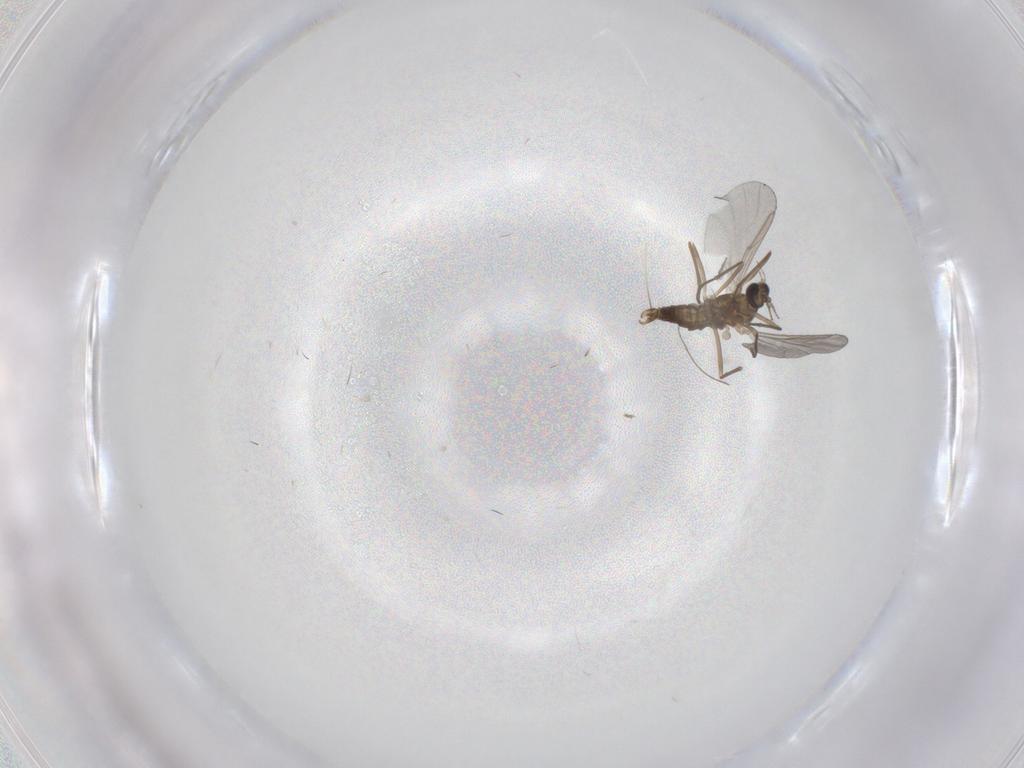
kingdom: Animalia
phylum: Arthropoda
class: Insecta
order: Diptera
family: Cecidomyiidae
